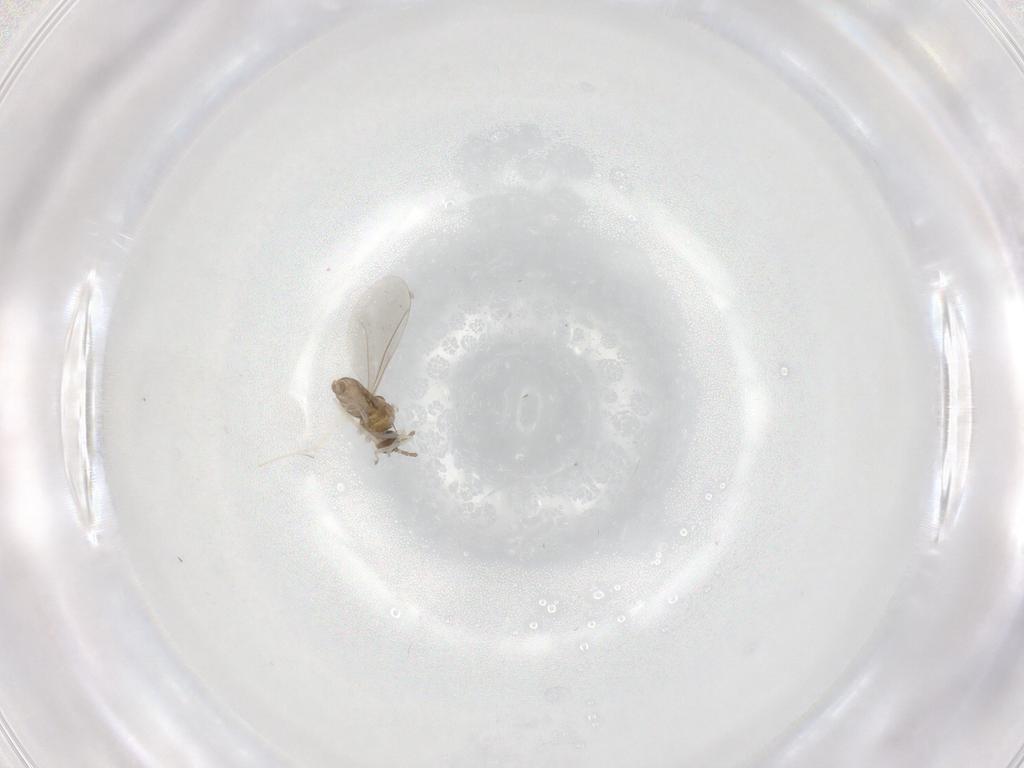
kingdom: Animalia
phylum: Arthropoda
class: Insecta
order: Diptera
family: Cecidomyiidae
